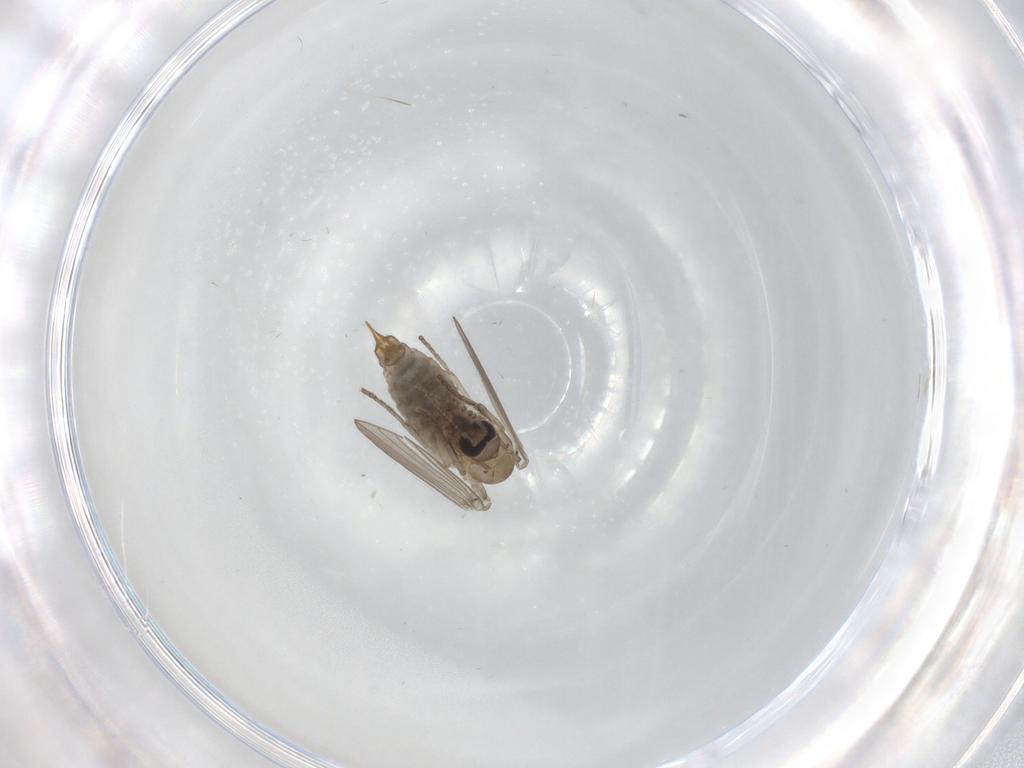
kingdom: Animalia
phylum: Arthropoda
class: Insecta
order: Diptera
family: Psychodidae
